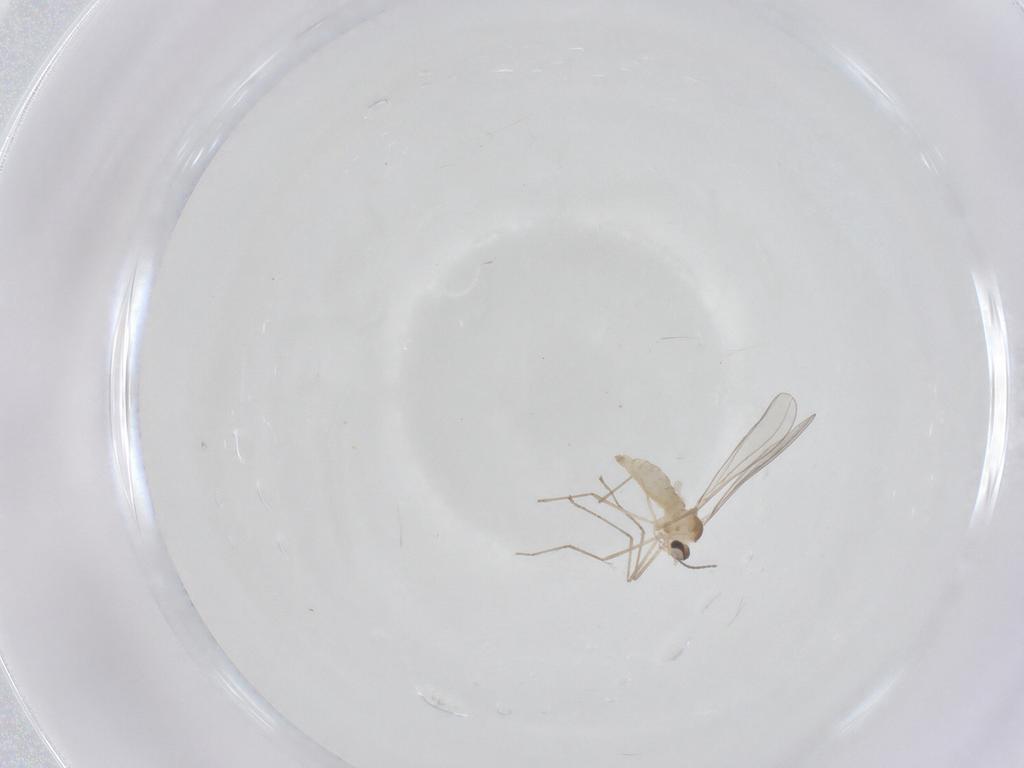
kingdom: Animalia
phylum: Arthropoda
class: Insecta
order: Diptera
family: Cecidomyiidae
